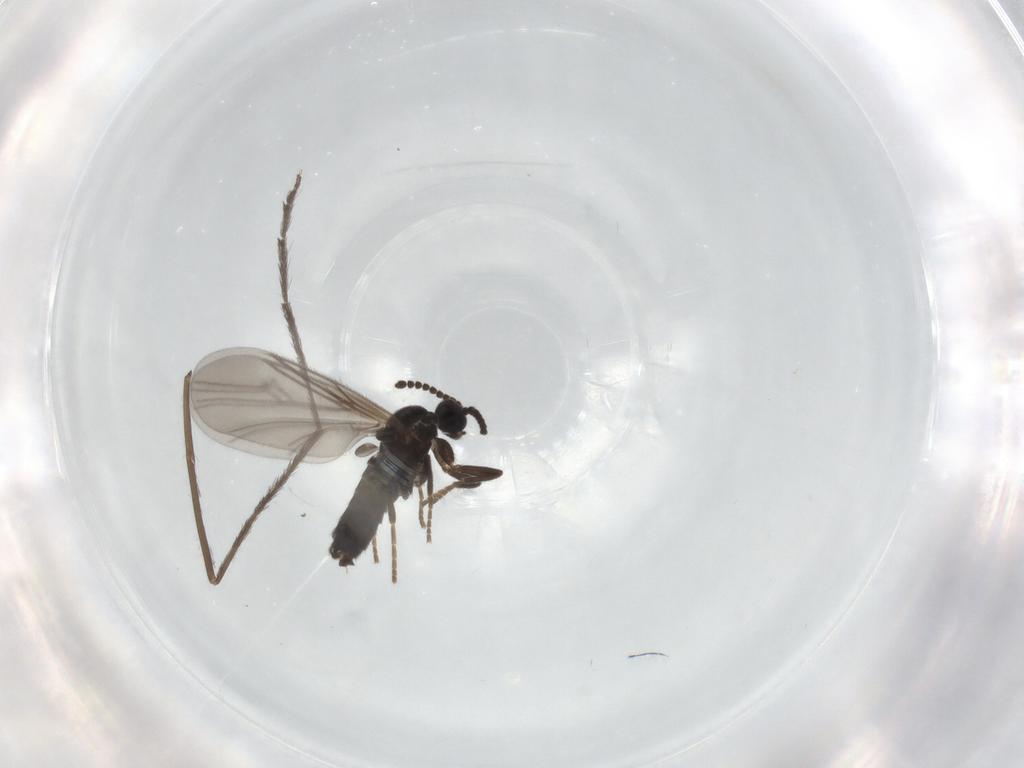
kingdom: Animalia
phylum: Arthropoda
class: Insecta
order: Diptera
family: Scatopsidae
